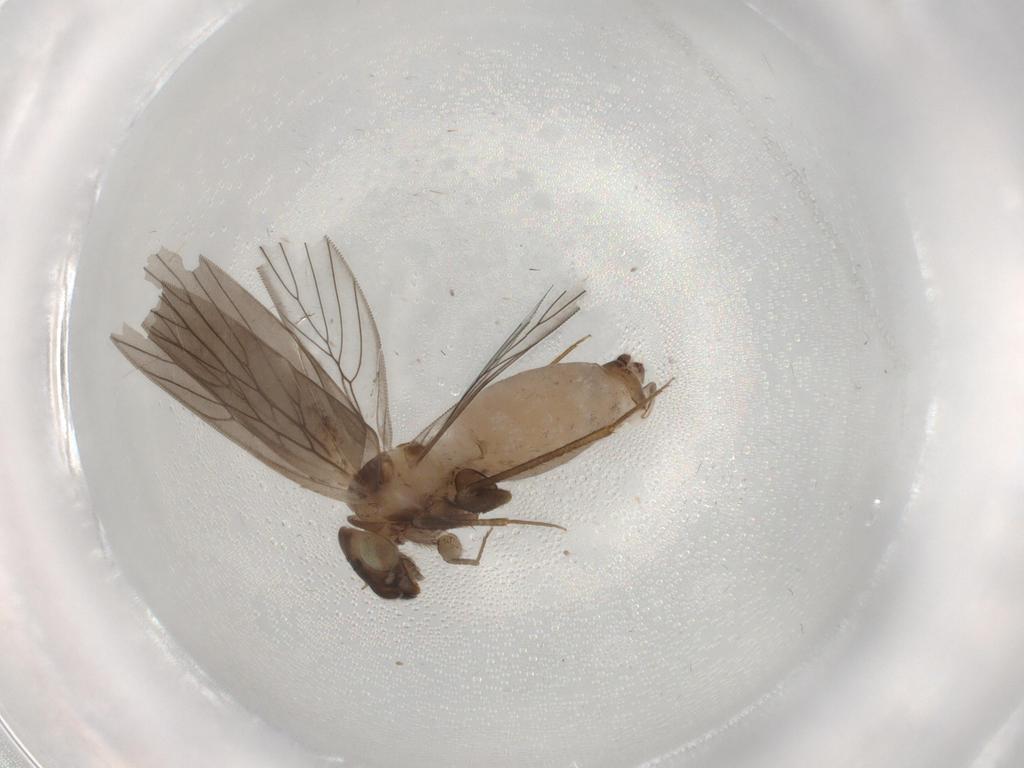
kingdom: Animalia
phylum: Arthropoda
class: Insecta
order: Psocodea
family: Lepidopsocidae
